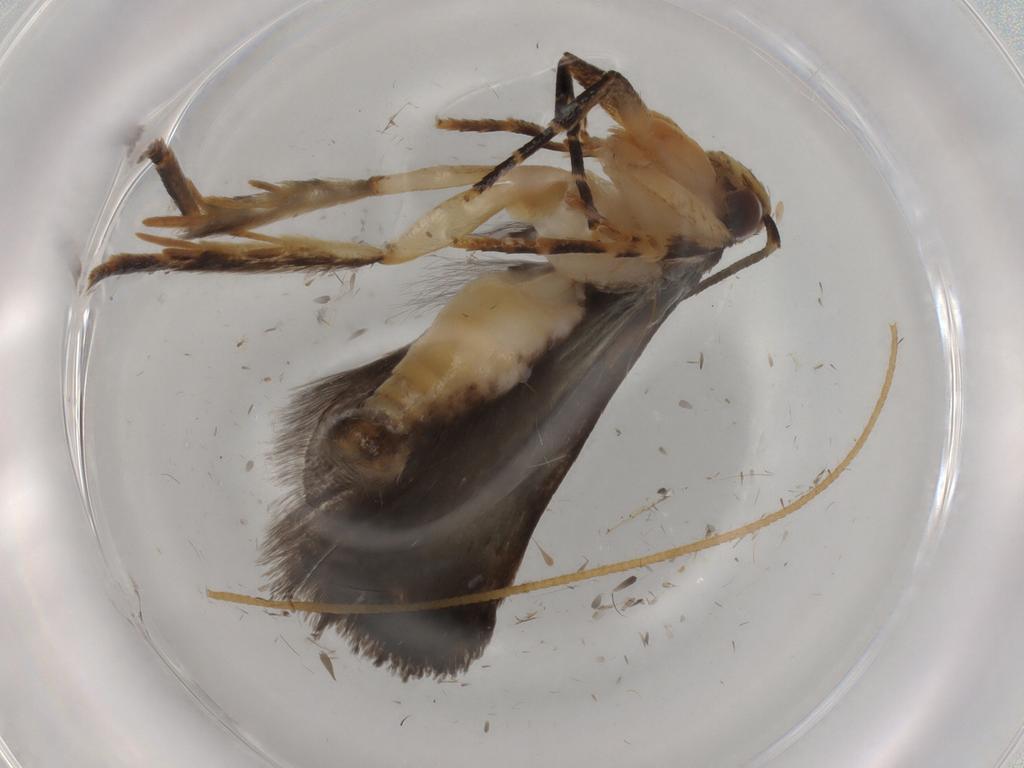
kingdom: Animalia
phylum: Arthropoda
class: Insecta
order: Lepidoptera
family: Gelechiidae
